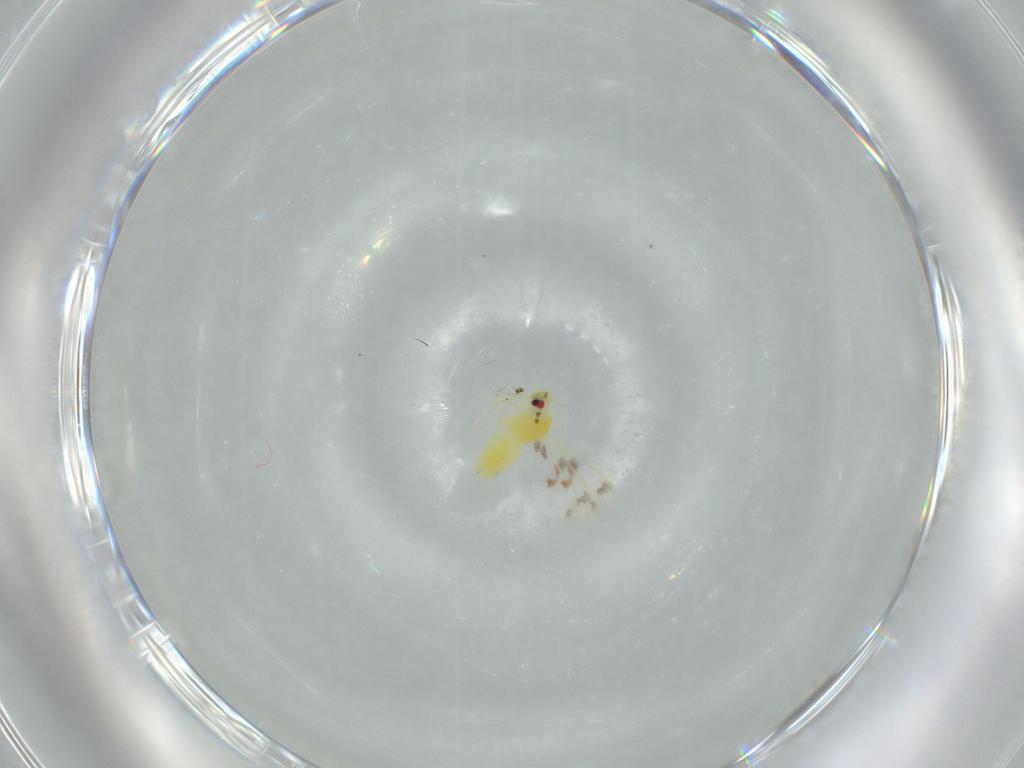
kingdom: Animalia
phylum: Arthropoda
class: Insecta
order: Hemiptera
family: Aleyrodidae
